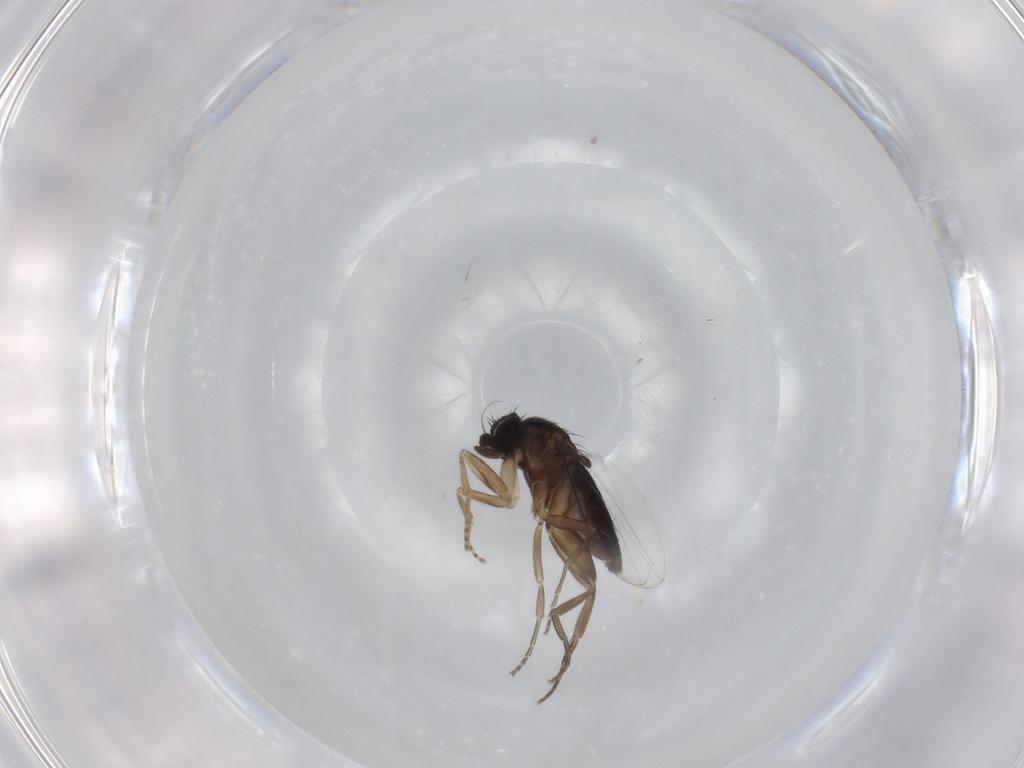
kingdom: Animalia
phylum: Arthropoda
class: Insecta
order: Diptera
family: Phoridae
